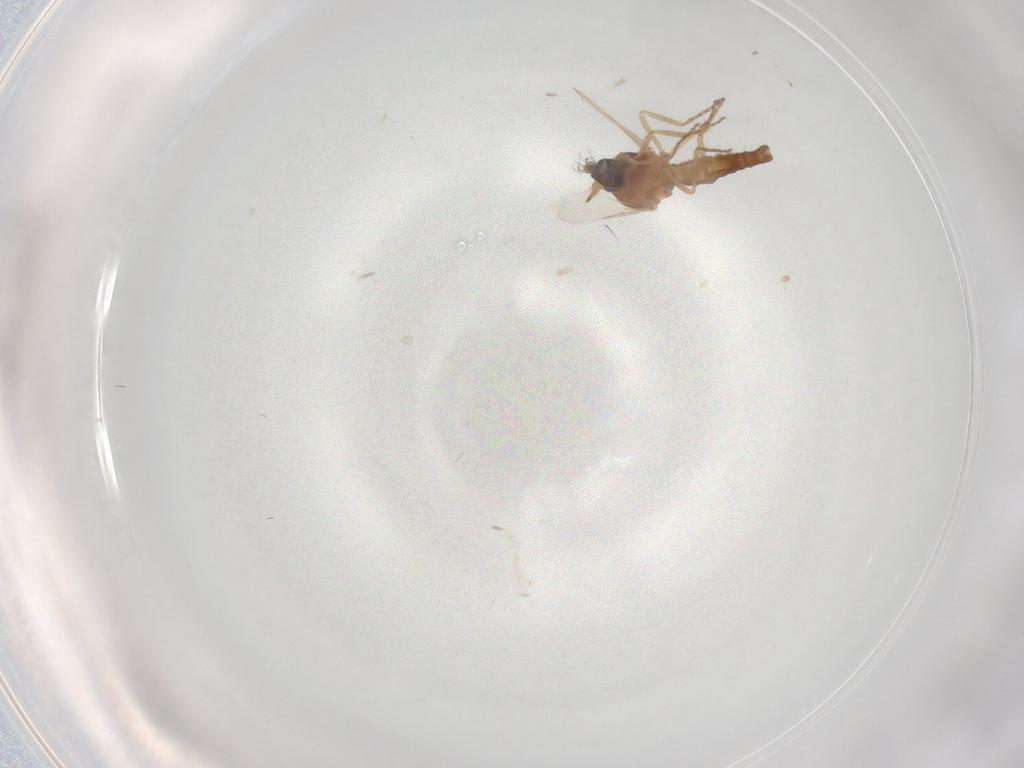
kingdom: Animalia
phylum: Arthropoda
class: Insecta
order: Diptera
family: Ceratopogonidae
